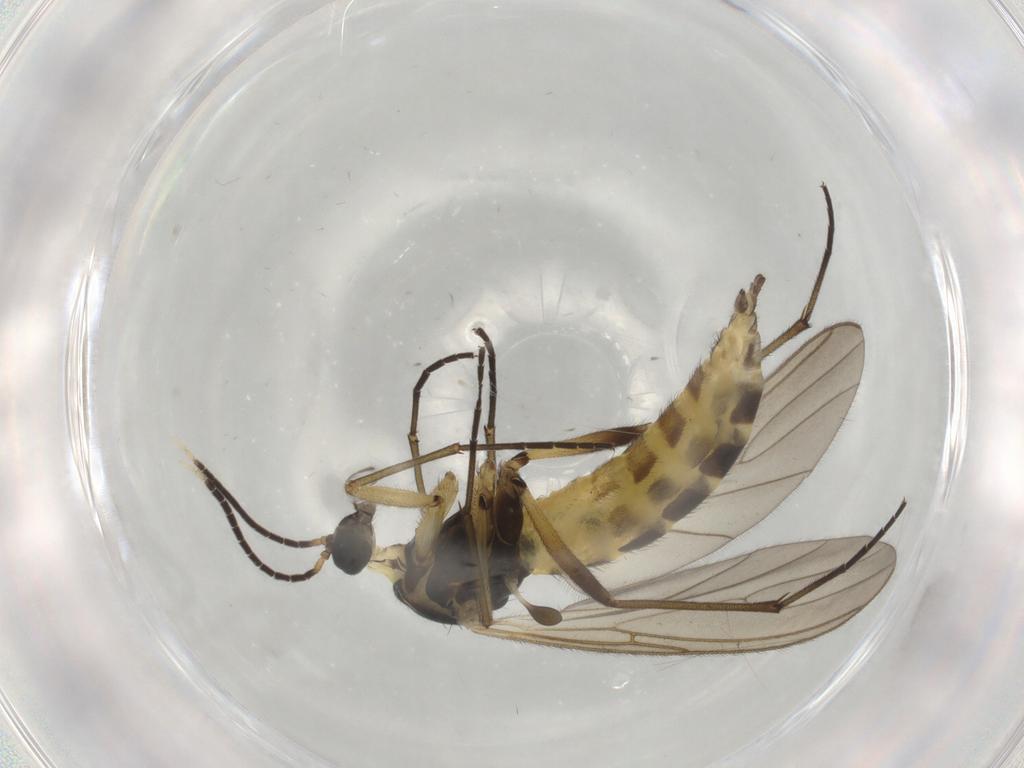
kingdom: Animalia
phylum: Arthropoda
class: Insecta
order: Diptera
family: Sciaridae
